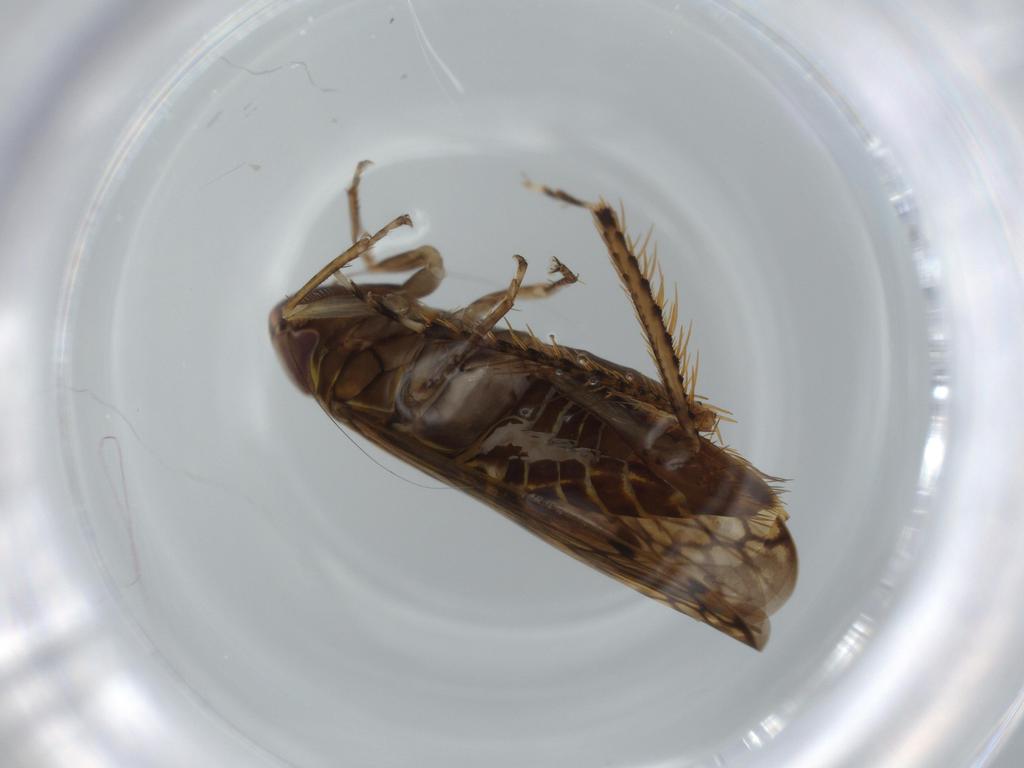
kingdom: Animalia
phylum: Arthropoda
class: Insecta
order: Hemiptera
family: Cicadellidae
